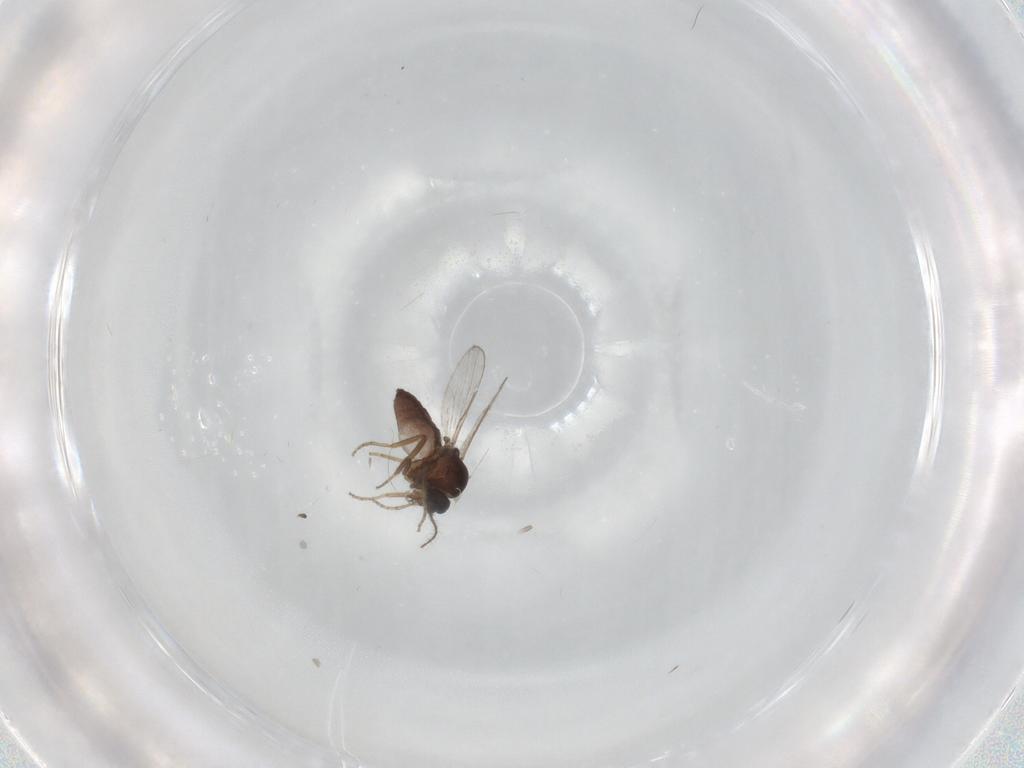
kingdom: Animalia
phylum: Arthropoda
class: Insecta
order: Diptera
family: Ceratopogonidae
